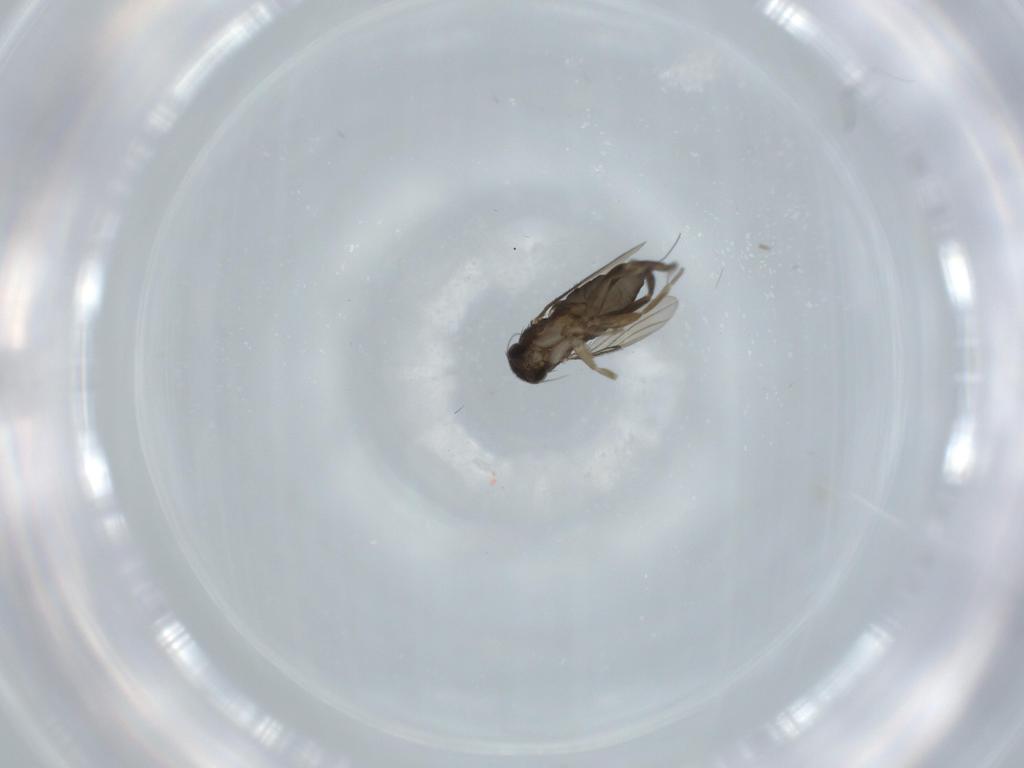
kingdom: Animalia
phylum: Arthropoda
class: Insecta
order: Diptera
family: Phoridae
